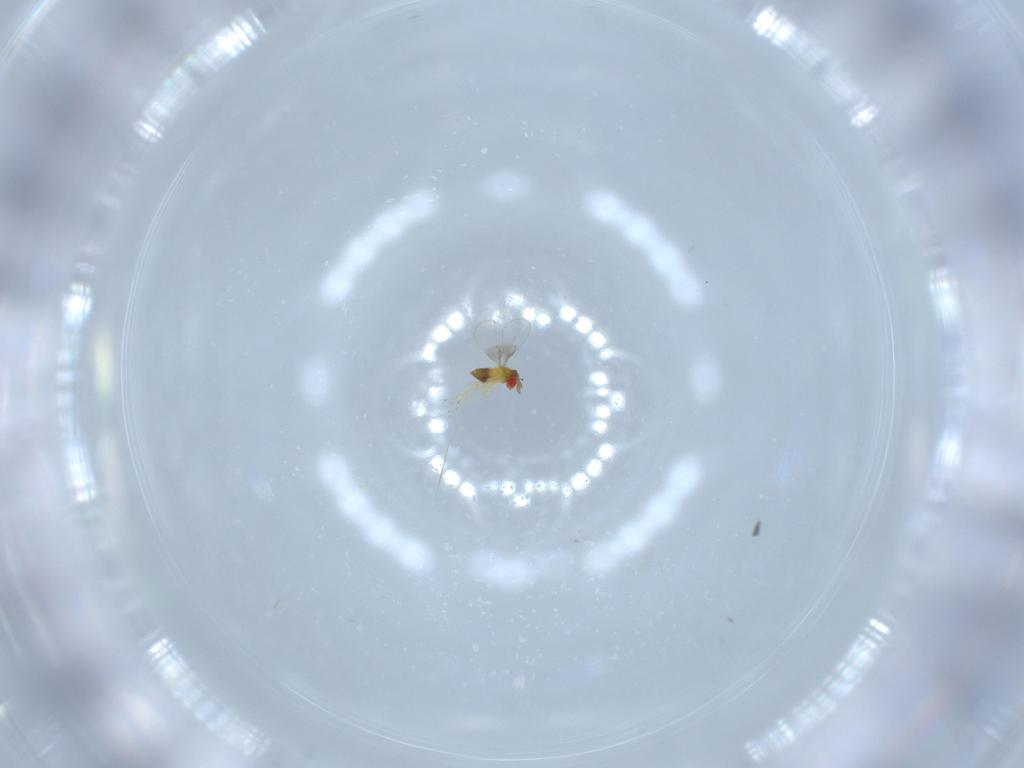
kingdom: Animalia
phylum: Arthropoda
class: Insecta
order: Hymenoptera
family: Trichogrammatidae
